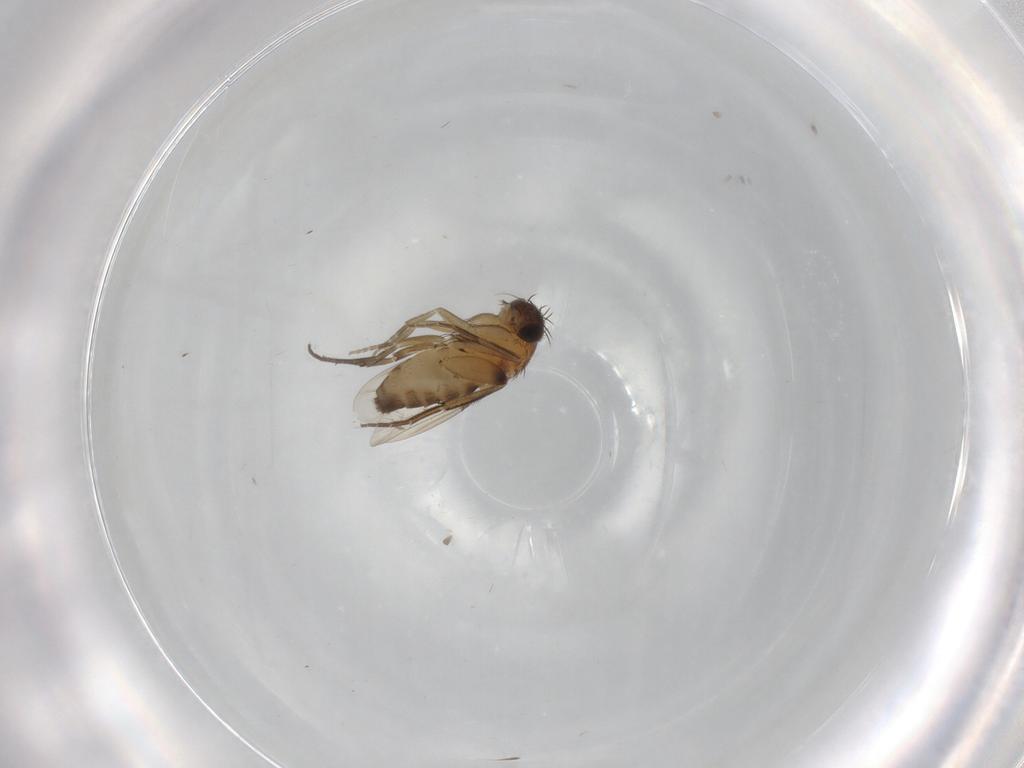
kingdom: Animalia
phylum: Arthropoda
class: Insecta
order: Diptera
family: Phoridae
